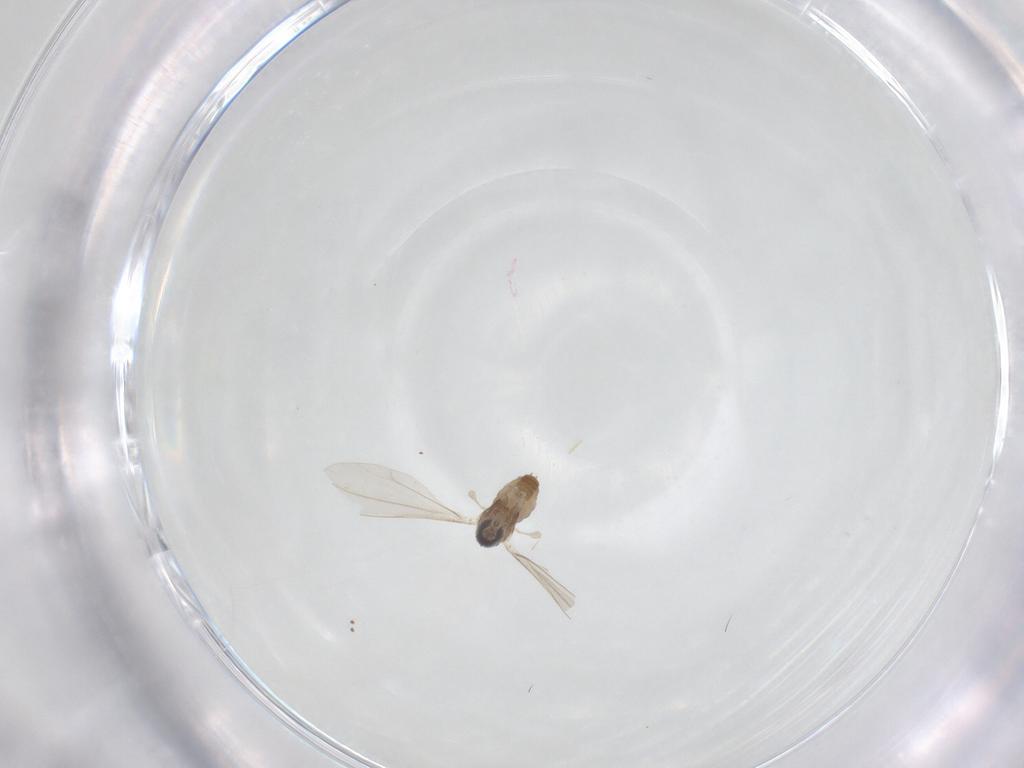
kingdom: Animalia
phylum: Arthropoda
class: Insecta
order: Diptera
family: Cecidomyiidae
